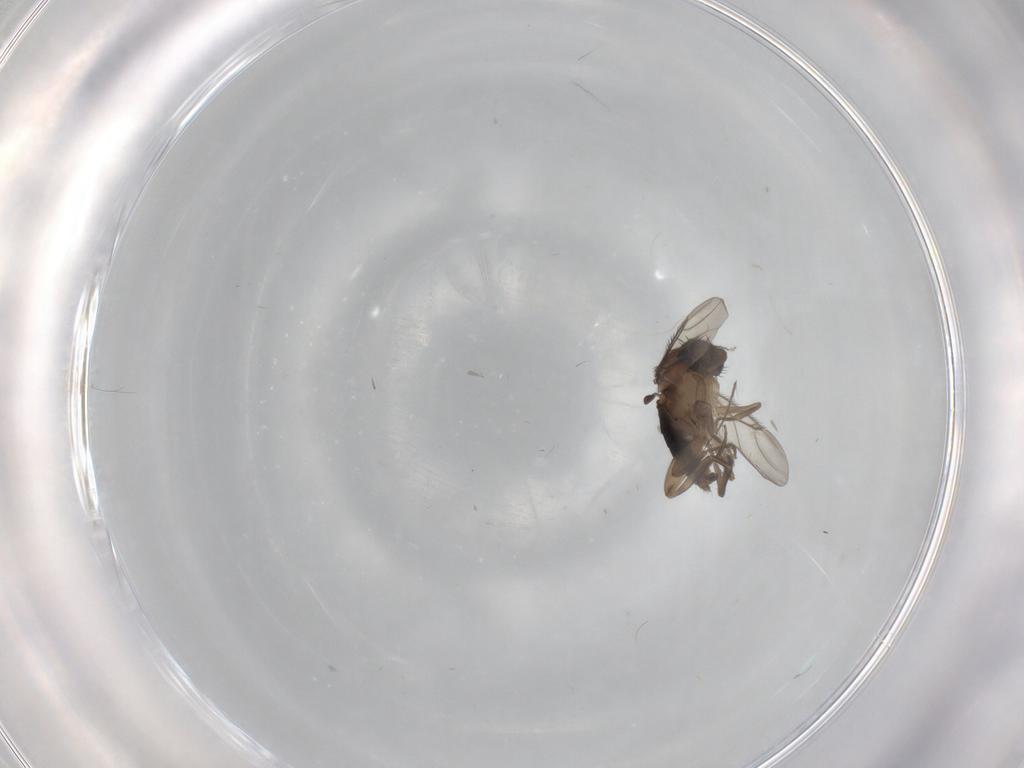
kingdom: Animalia
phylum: Arthropoda
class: Insecta
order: Diptera
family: Phoridae
